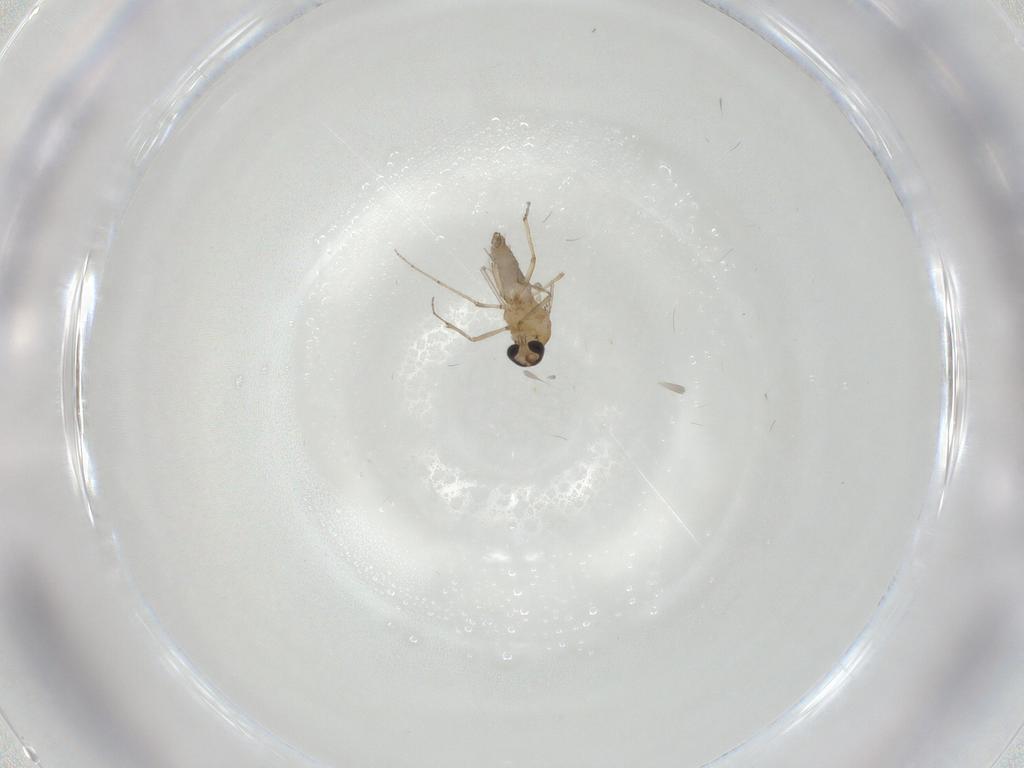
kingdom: Animalia
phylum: Arthropoda
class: Insecta
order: Diptera
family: Ceratopogonidae
